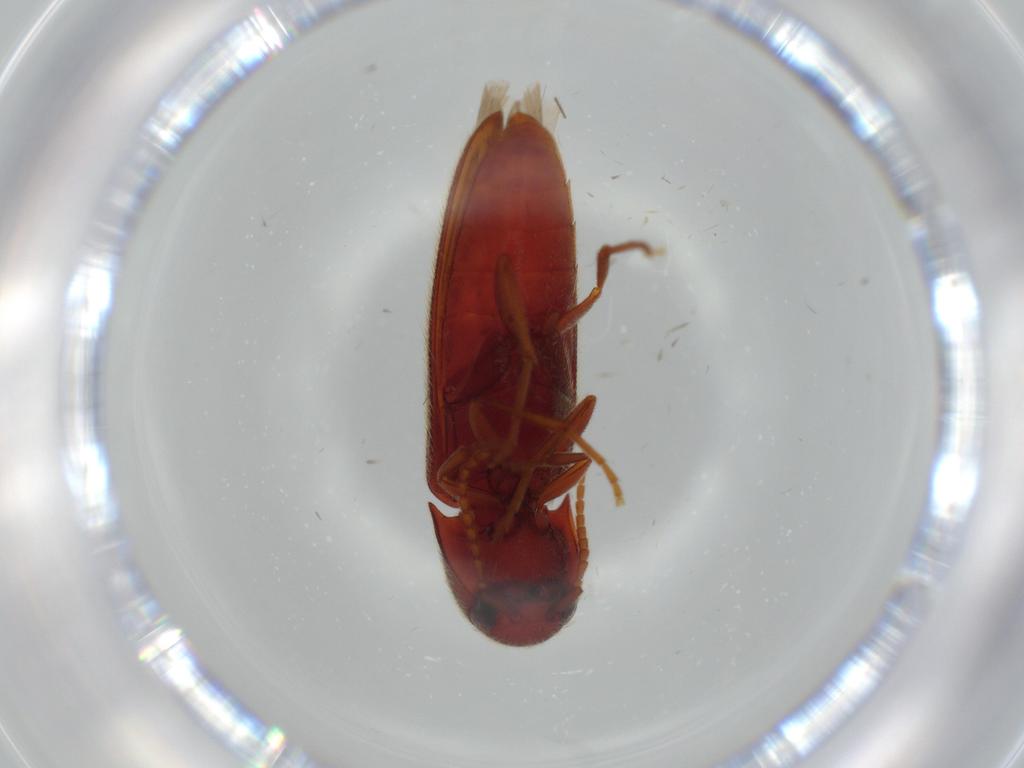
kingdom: Animalia
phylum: Arthropoda
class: Insecta
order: Coleoptera
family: Eucnemidae
